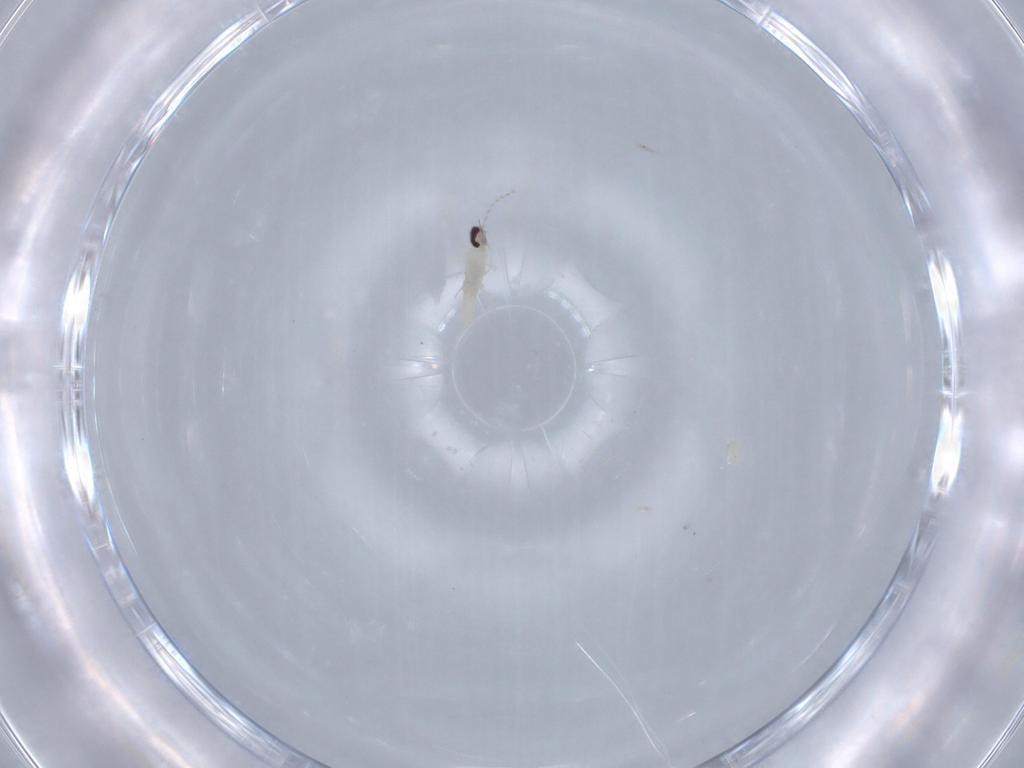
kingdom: Animalia
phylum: Arthropoda
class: Insecta
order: Diptera
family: Cecidomyiidae
